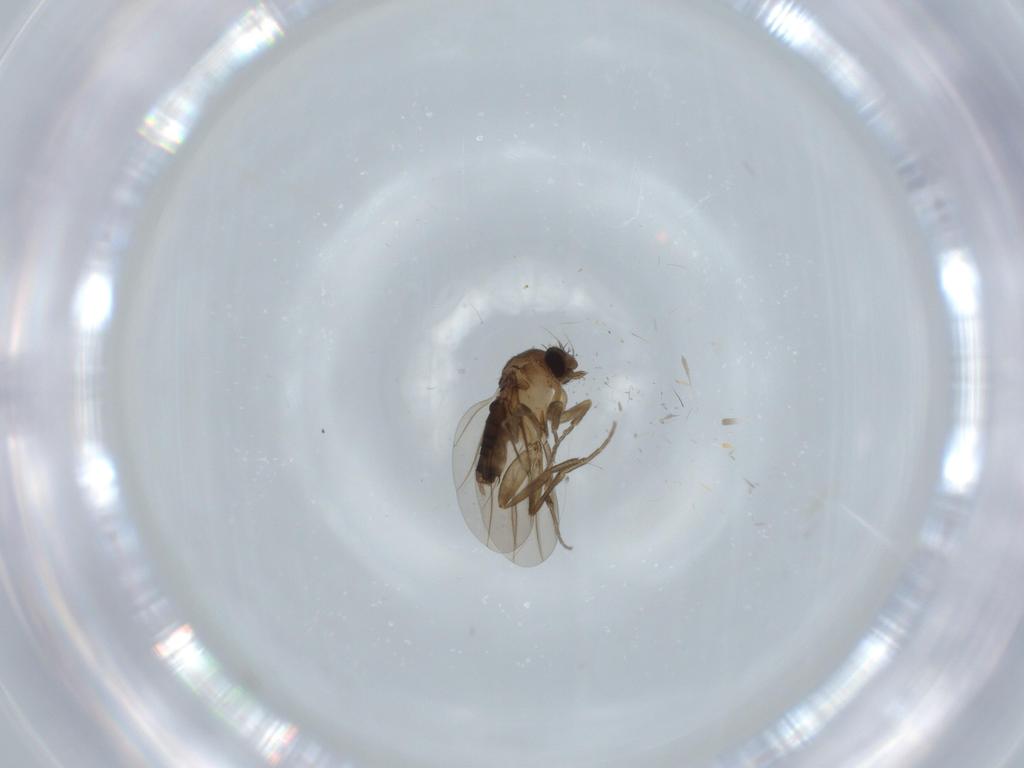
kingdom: Animalia
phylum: Arthropoda
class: Insecta
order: Diptera
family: Phoridae
